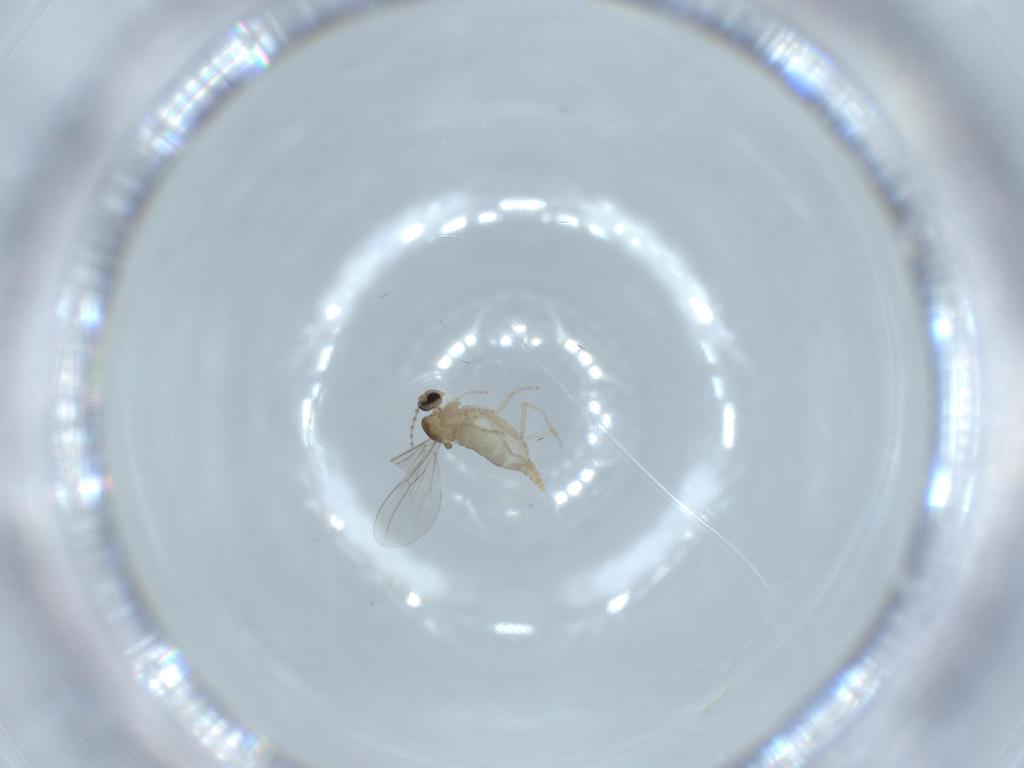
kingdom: Animalia
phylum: Arthropoda
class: Insecta
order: Diptera
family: Cecidomyiidae
